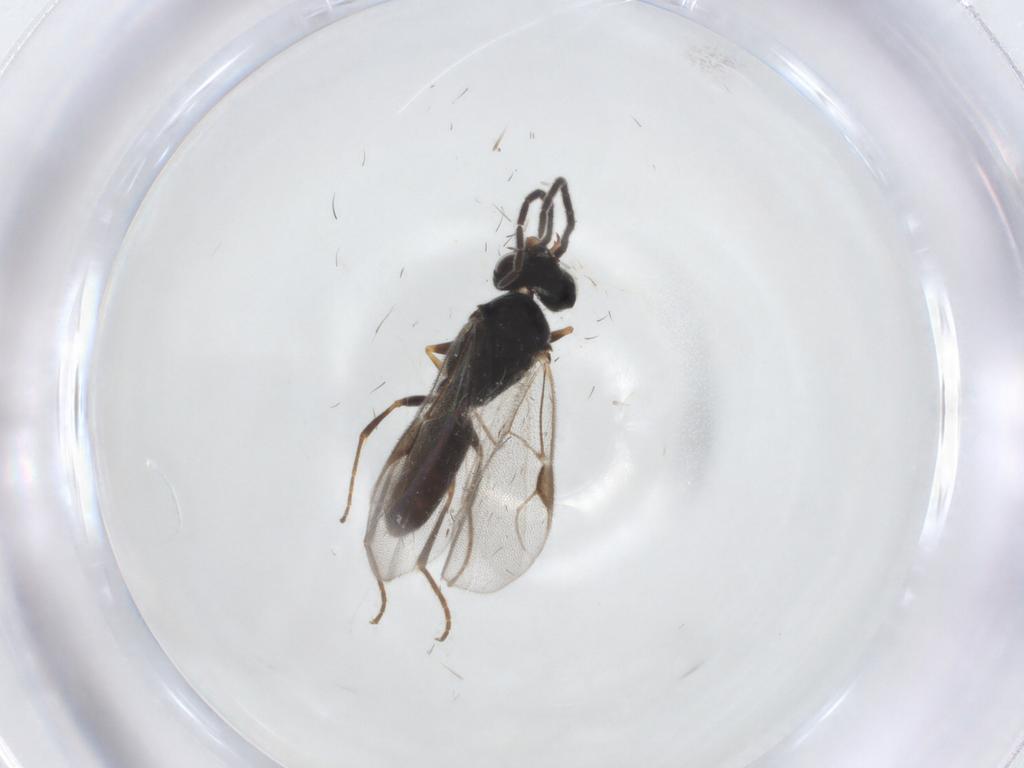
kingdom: Animalia
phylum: Arthropoda
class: Insecta
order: Hymenoptera
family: Dryinidae
